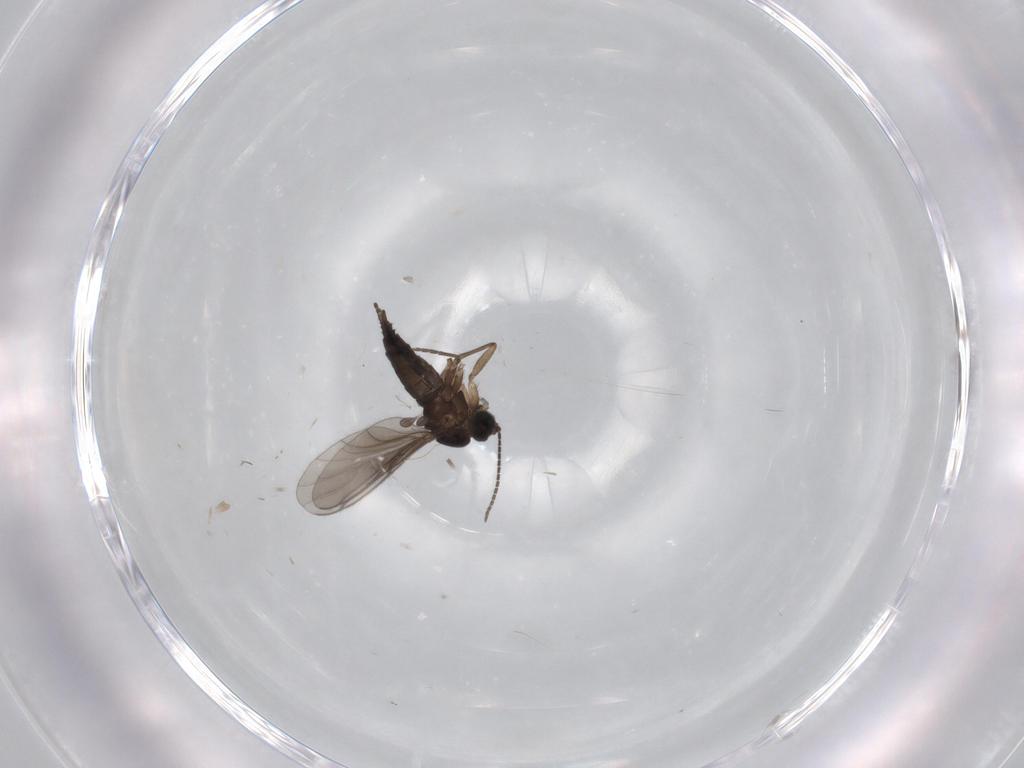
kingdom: Animalia
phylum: Arthropoda
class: Insecta
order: Diptera
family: Chironomidae
